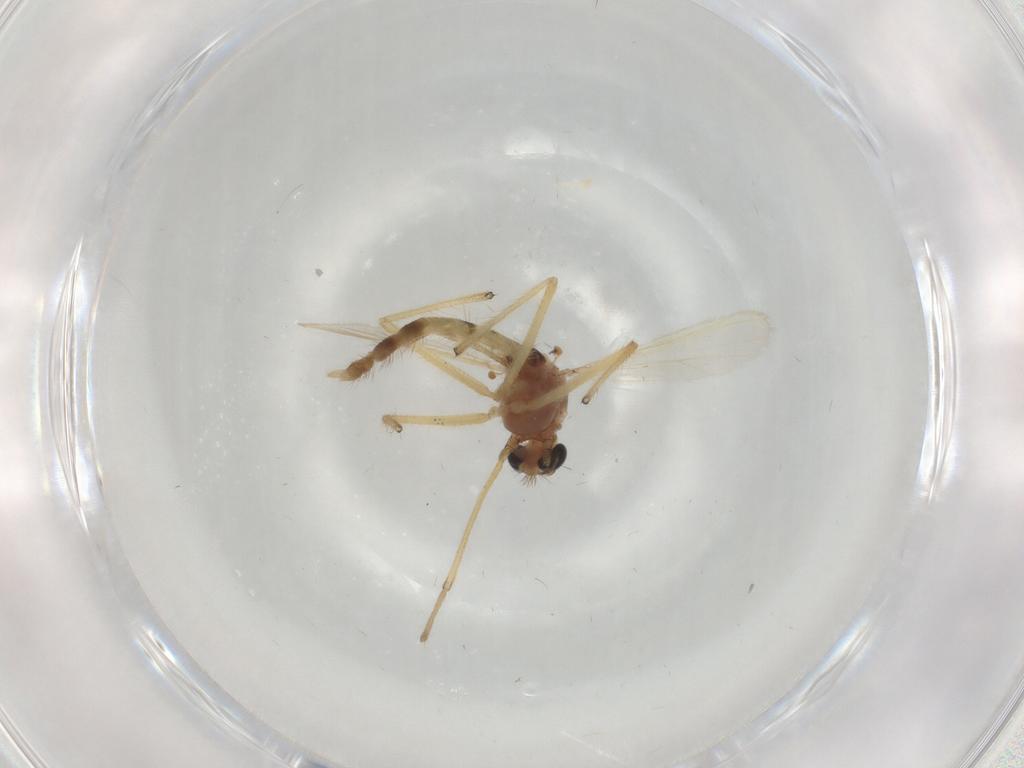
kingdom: Animalia
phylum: Arthropoda
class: Insecta
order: Diptera
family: Chironomidae
